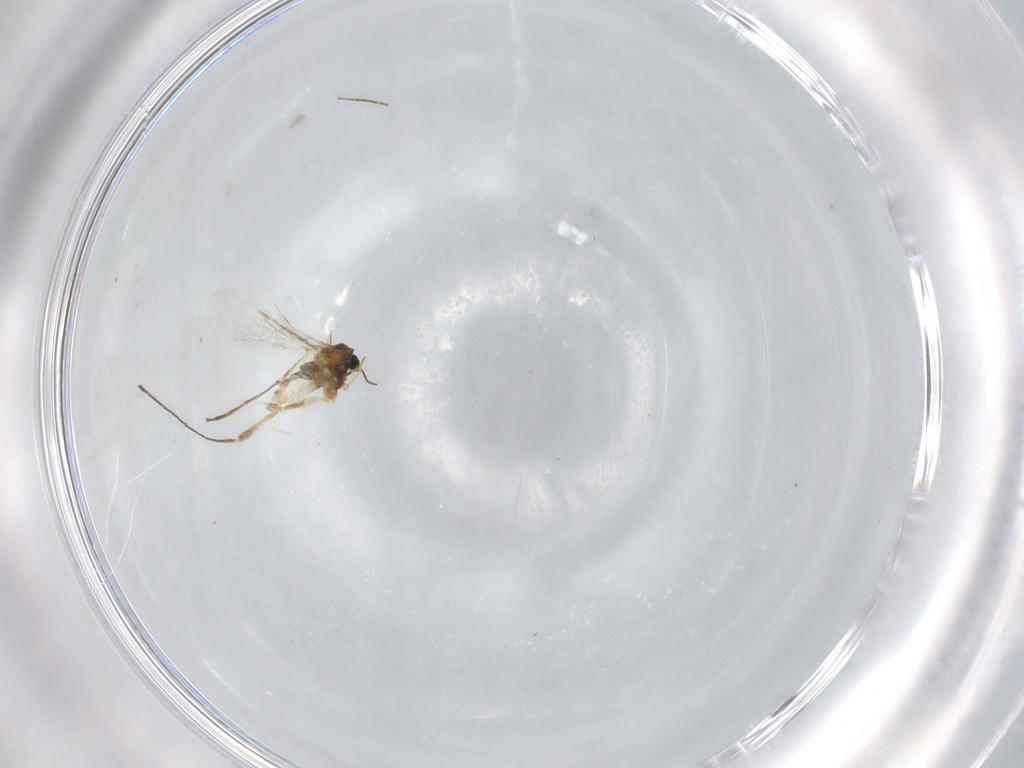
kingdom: Animalia
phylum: Arthropoda
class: Insecta
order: Diptera
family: Cecidomyiidae
